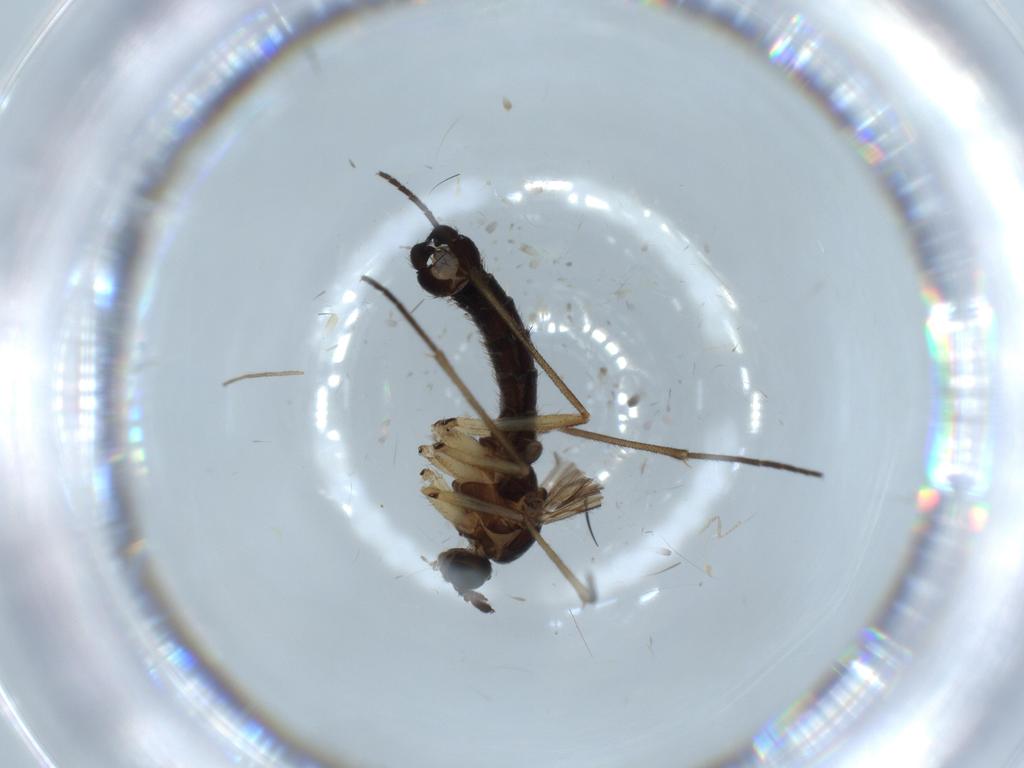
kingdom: Animalia
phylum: Arthropoda
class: Insecta
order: Diptera
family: Sciaridae
